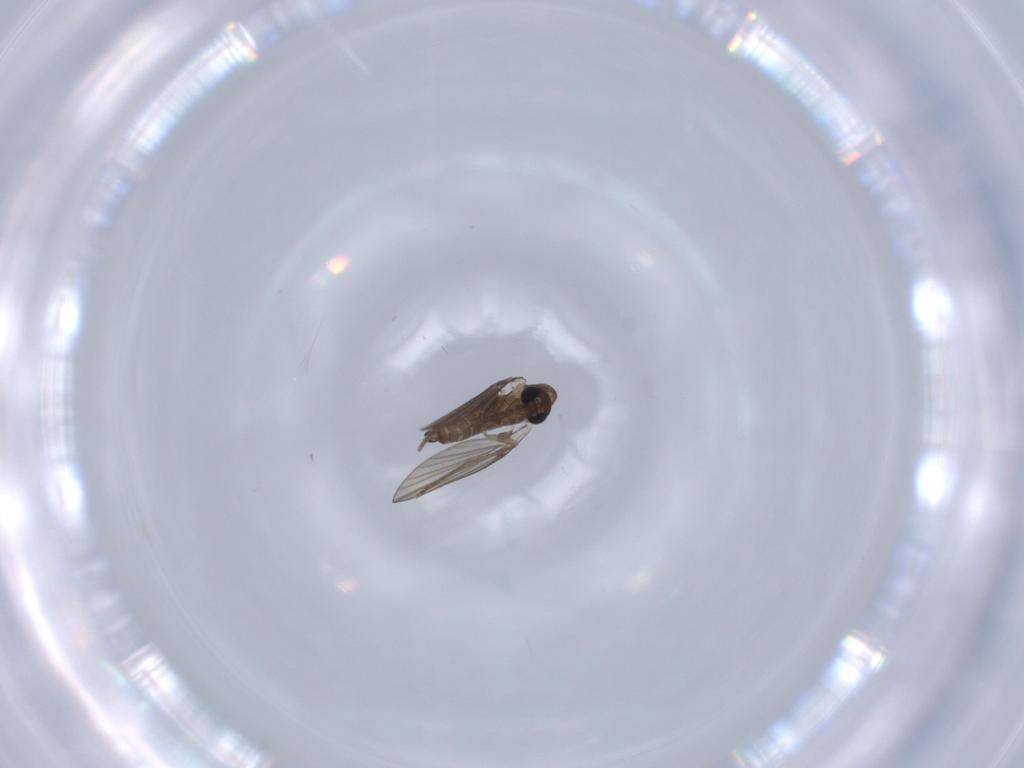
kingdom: Animalia
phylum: Arthropoda
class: Insecta
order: Diptera
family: Psychodidae
